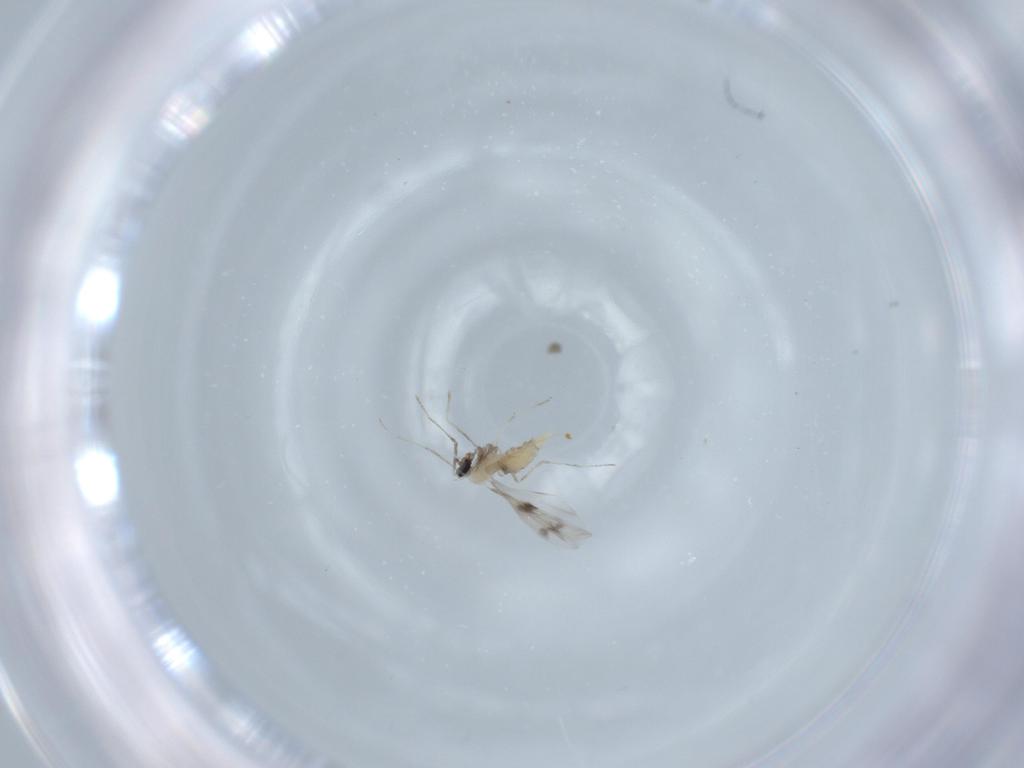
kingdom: Animalia
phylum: Arthropoda
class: Insecta
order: Diptera
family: Cecidomyiidae
